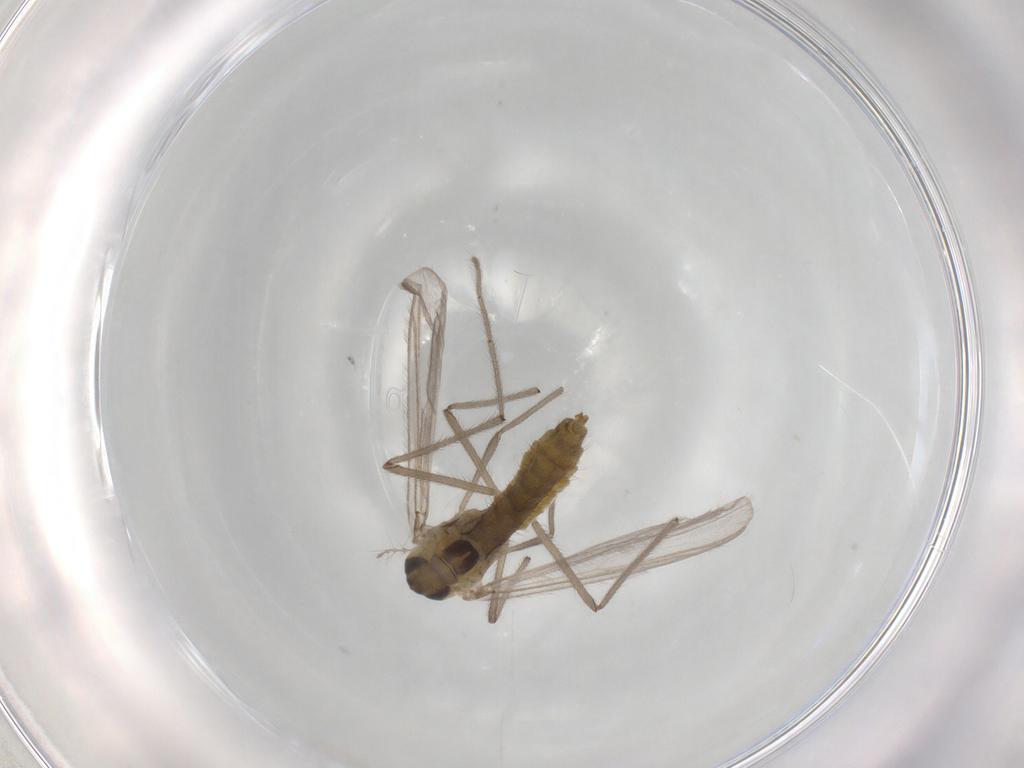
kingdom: Animalia
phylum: Arthropoda
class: Insecta
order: Diptera
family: Chironomidae
